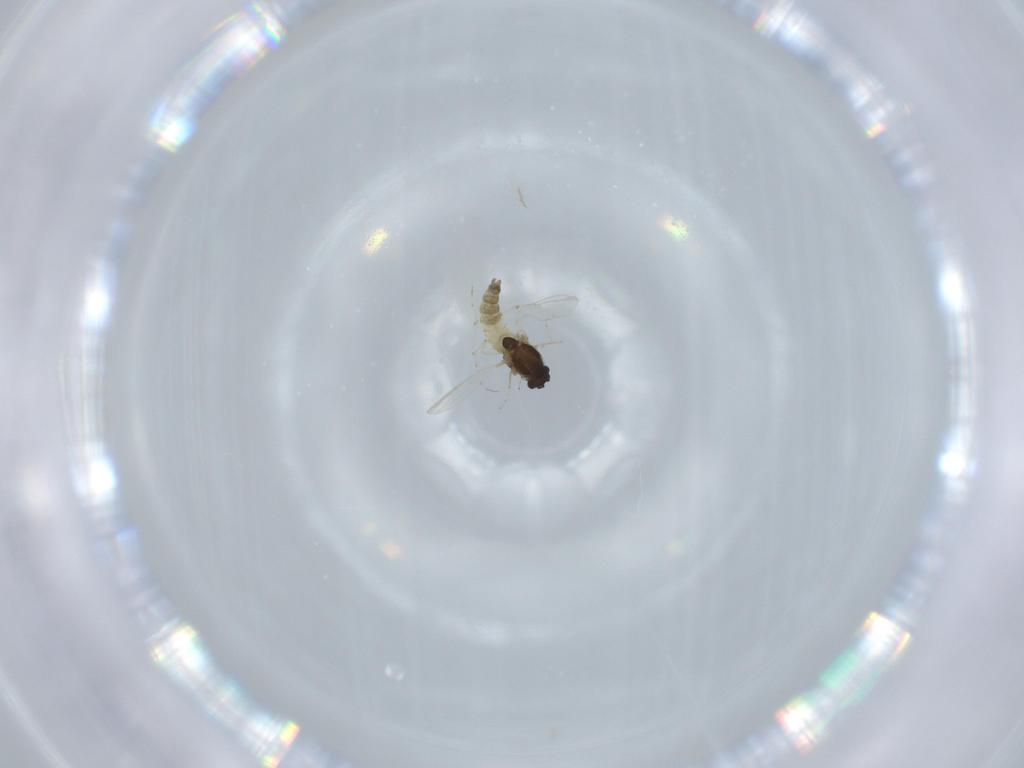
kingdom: Animalia
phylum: Arthropoda
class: Insecta
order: Diptera
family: Chironomidae
